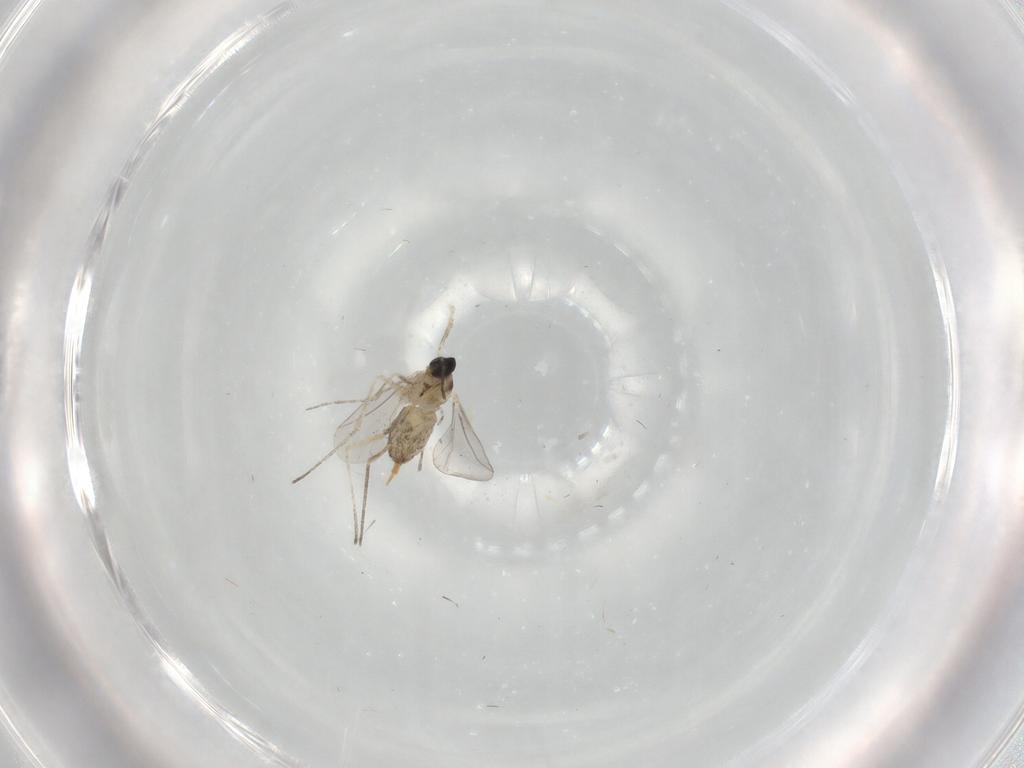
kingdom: Animalia
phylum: Arthropoda
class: Insecta
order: Diptera
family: Cecidomyiidae
